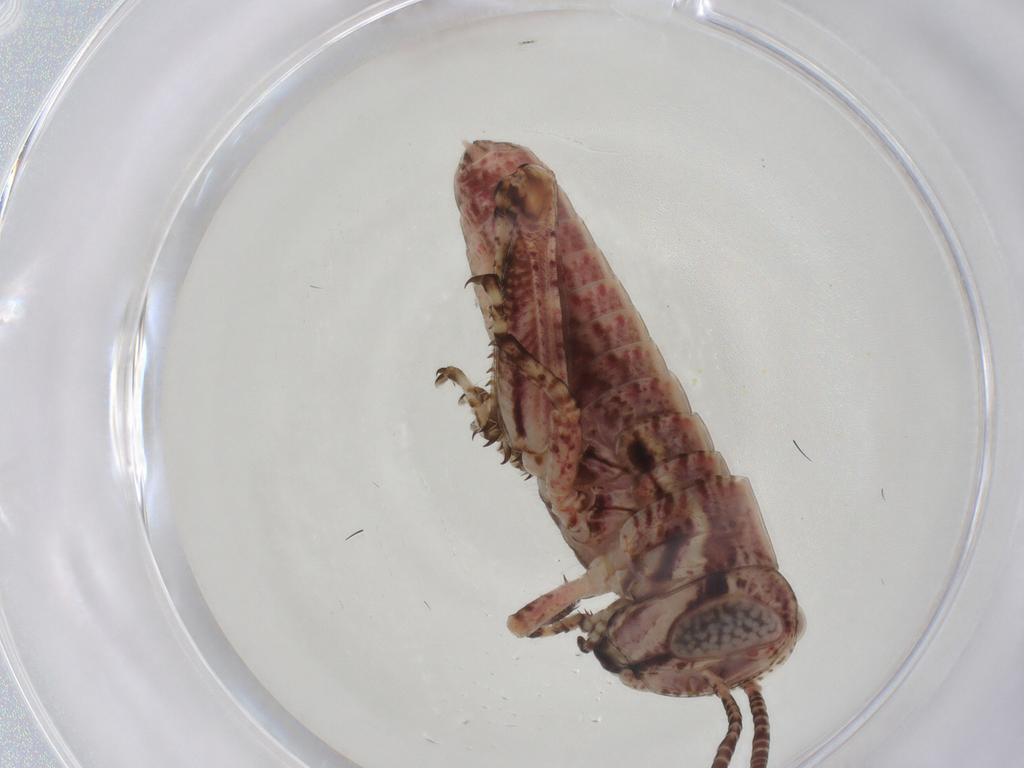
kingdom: Animalia
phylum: Arthropoda
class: Insecta
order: Orthoptera
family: Acrididae
